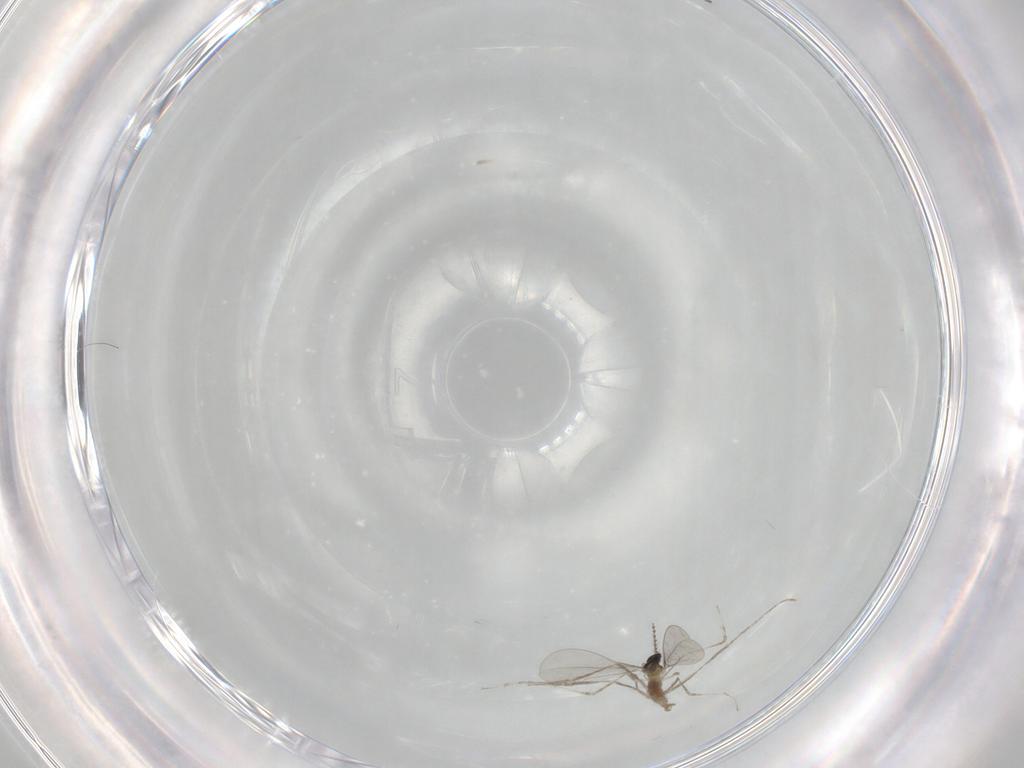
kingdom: Animalia
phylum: Arthropoda
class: Insecta
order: Diptera
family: Cecidomyiidae
